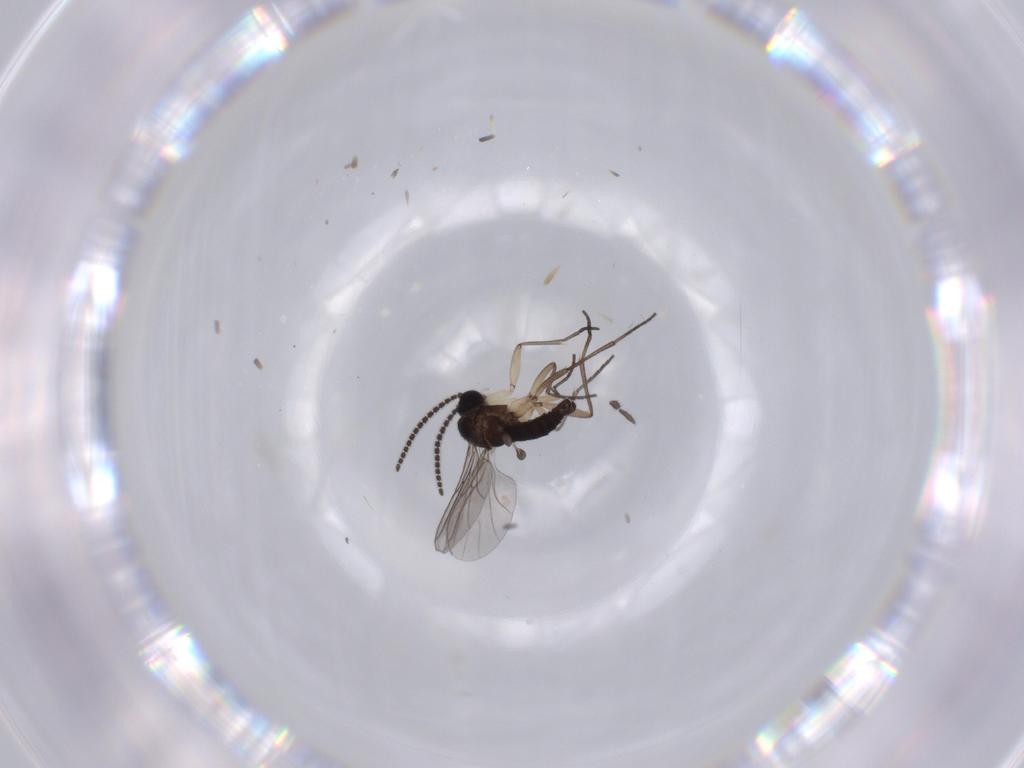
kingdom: Animalia
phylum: Arthropoda
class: Insecta
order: Diptera
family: Sciaridae
